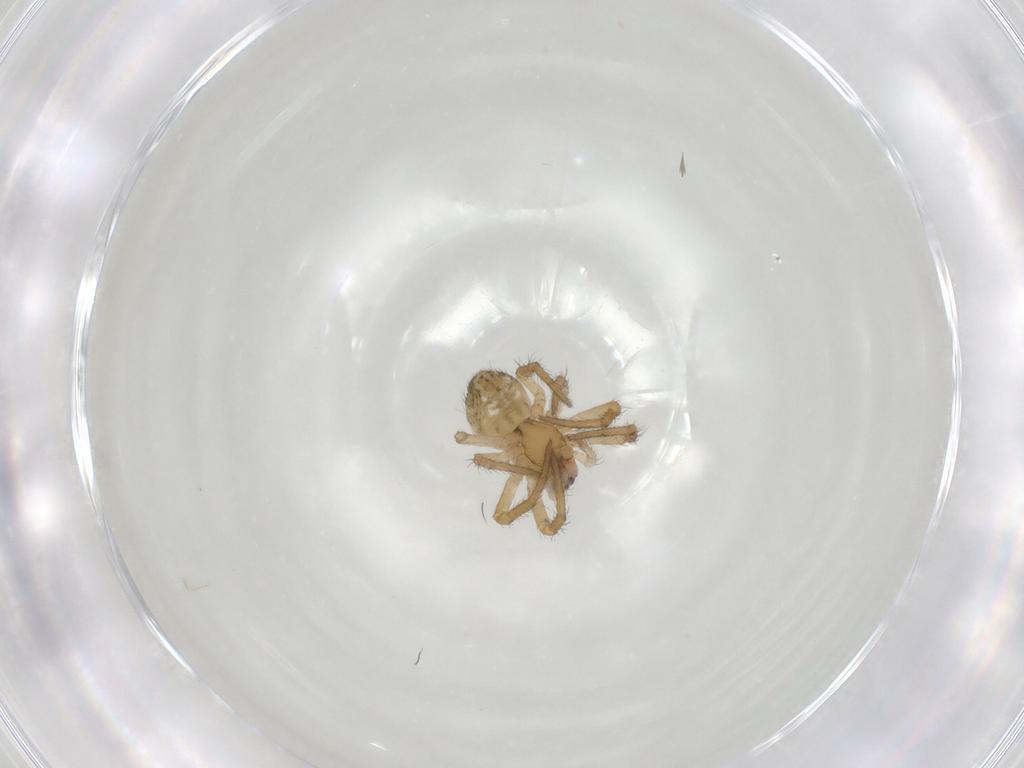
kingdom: Animalia
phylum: Arthropoda
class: Arachnida
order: Araneae
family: Araneidae
